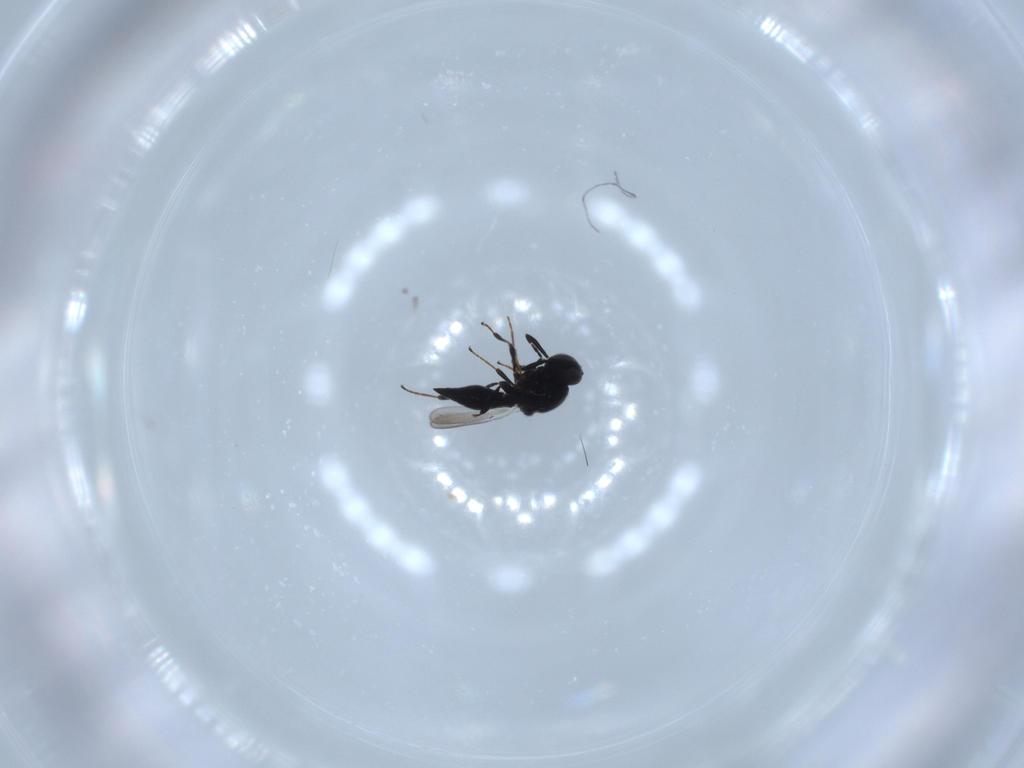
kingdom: Animalia
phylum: Arthropoda
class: Insecta
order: Diptera
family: Mythicomyiidae
